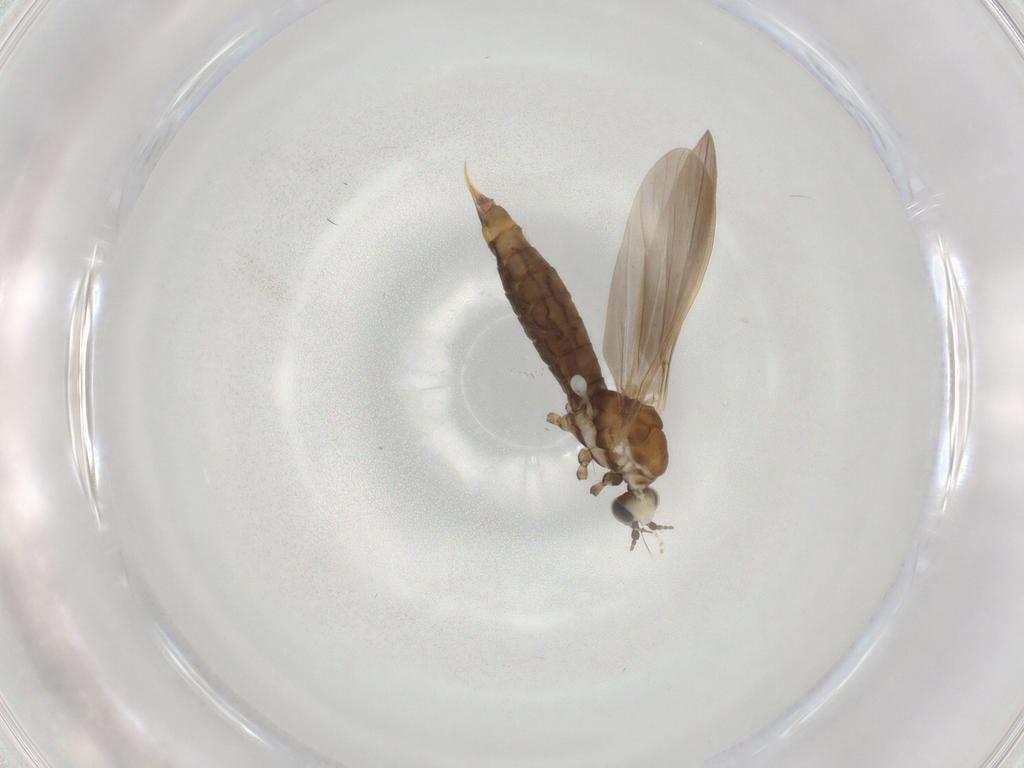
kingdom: Animalia
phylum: Arthropoda
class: Insecta
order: Diptera
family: Limoniidae
